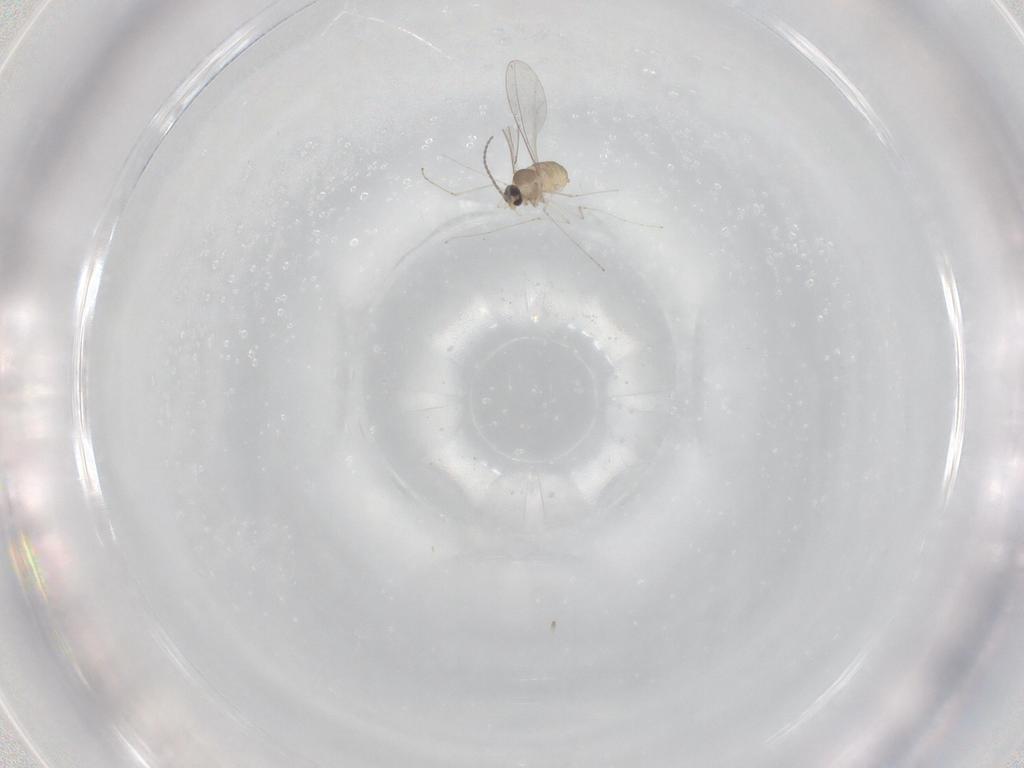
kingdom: Animalia
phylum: Arthropoda
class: Insecta
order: Diptera
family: Cecidomyiidae
